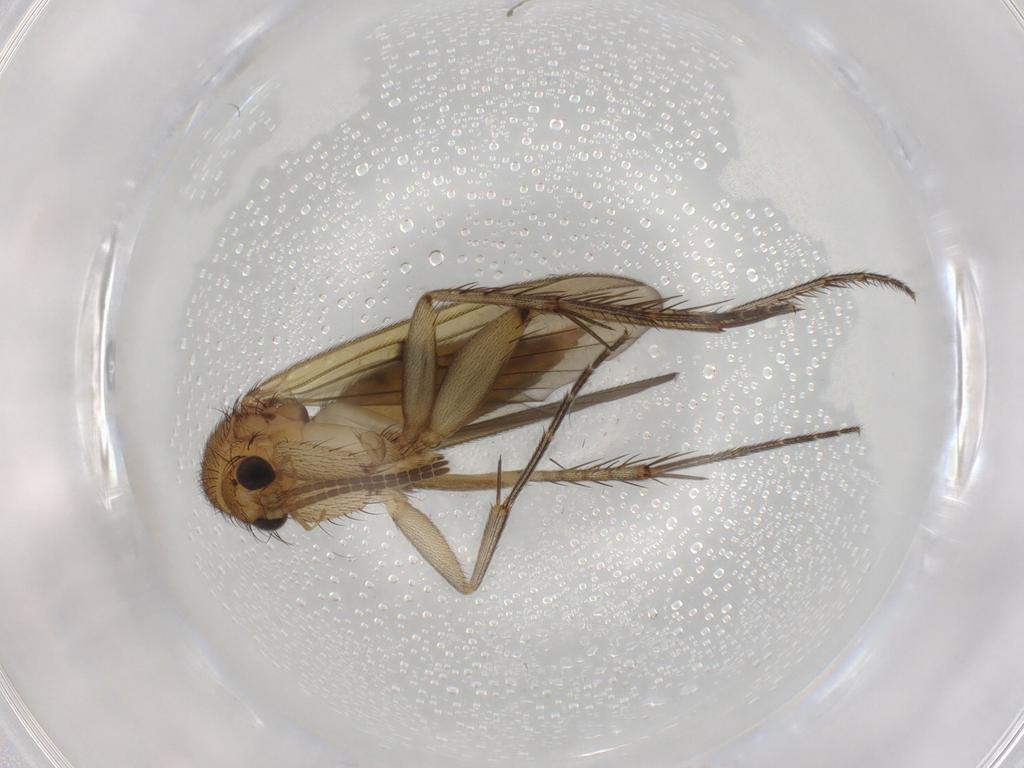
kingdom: Animalia
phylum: Arthropoda
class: Insecta
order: Diptera
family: Mycetophilidae
